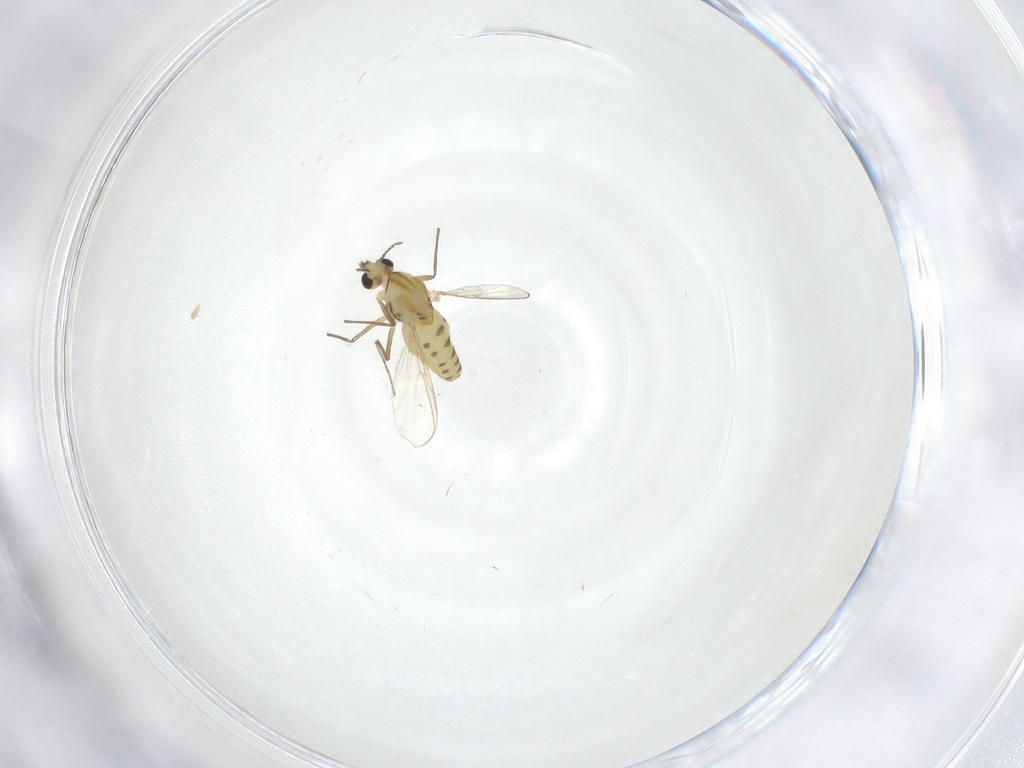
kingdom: Animalia
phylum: Arthropoda
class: Insecta
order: Diptera
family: Chironomidae
